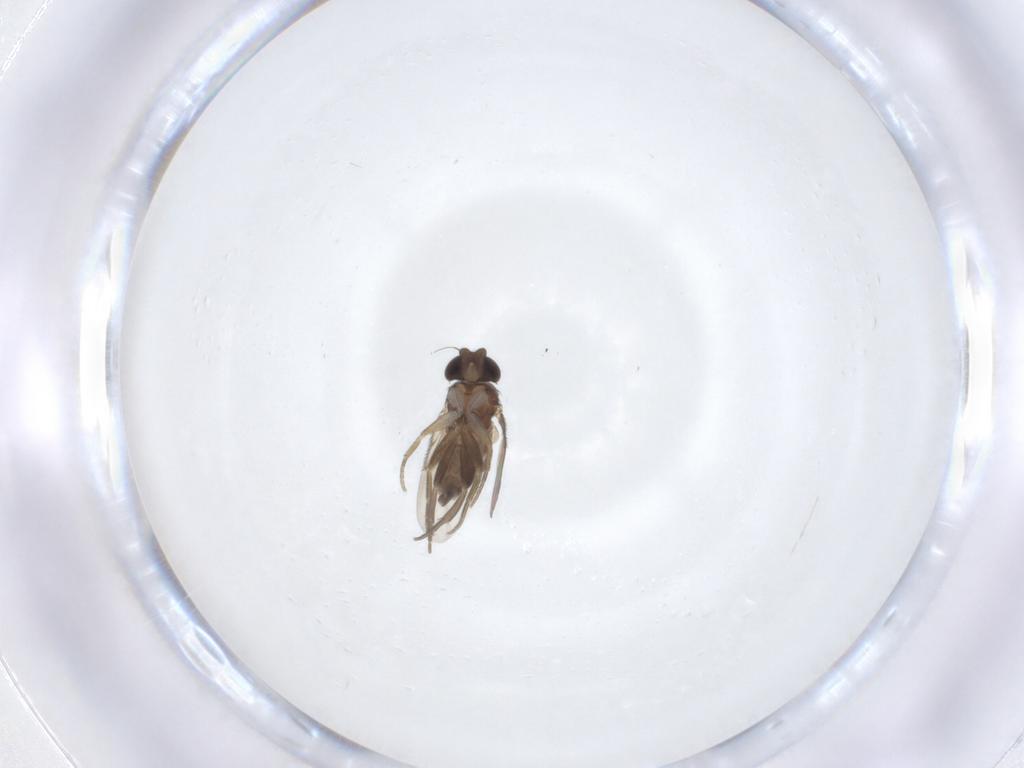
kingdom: Animalia
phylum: Arthropoda
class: Insecta
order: Diptera
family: Phoridae
